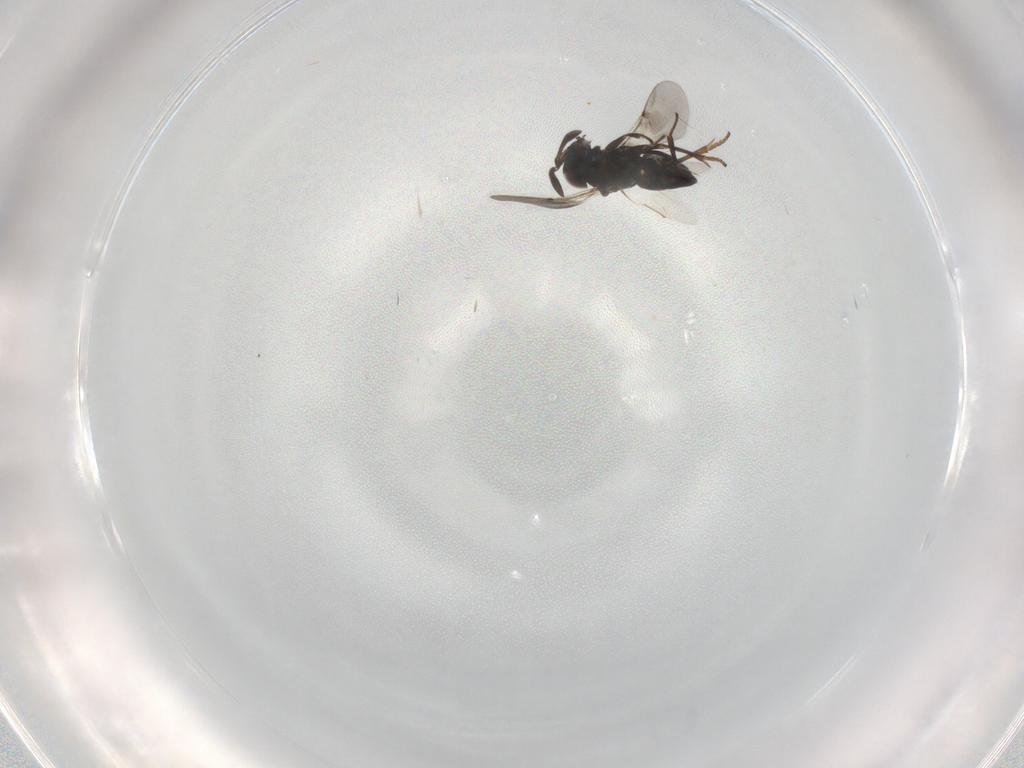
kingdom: Animalia
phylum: Arthropoda
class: Insecta
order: Hymenoptera
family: Encyrtidae
